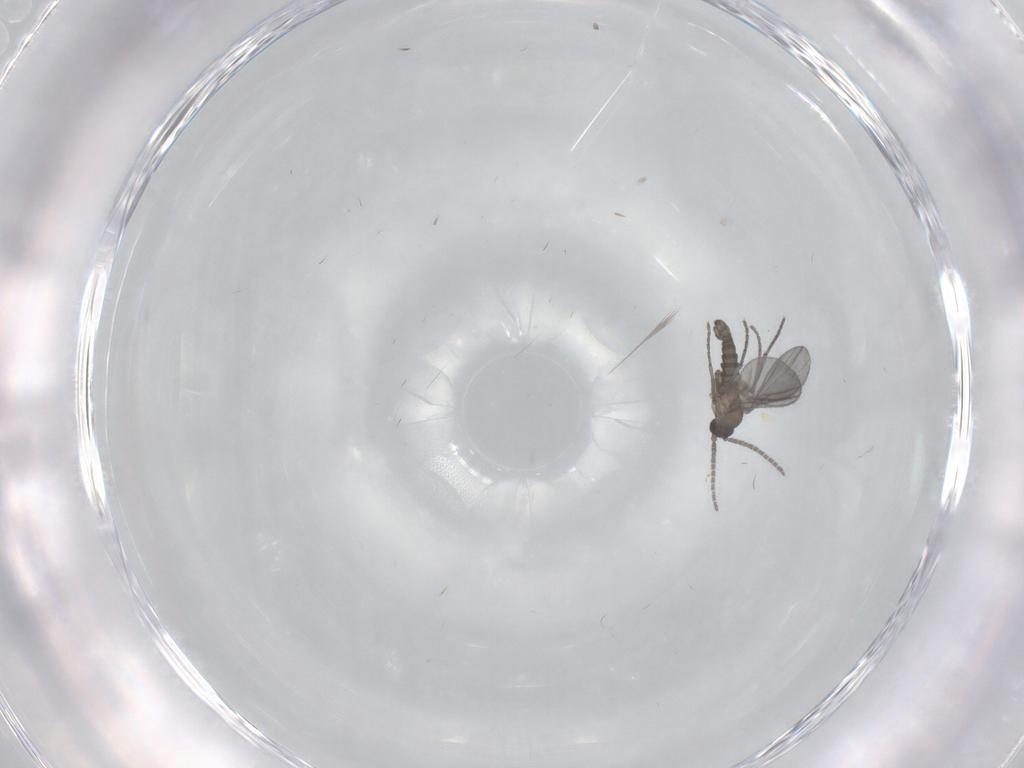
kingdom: Animalia
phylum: Arthropoda
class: Insecta
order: Diptera
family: Sciaridae
